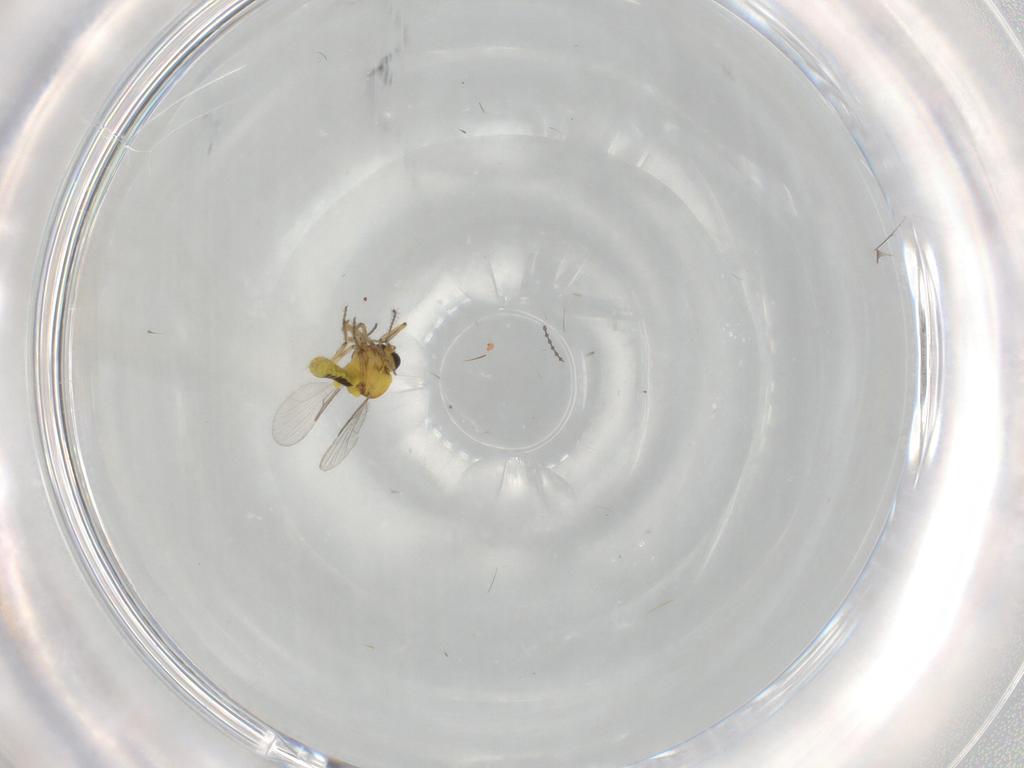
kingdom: Animalia
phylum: Arthropoda
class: Insecta
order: Diptera
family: Cecidomyiidae
